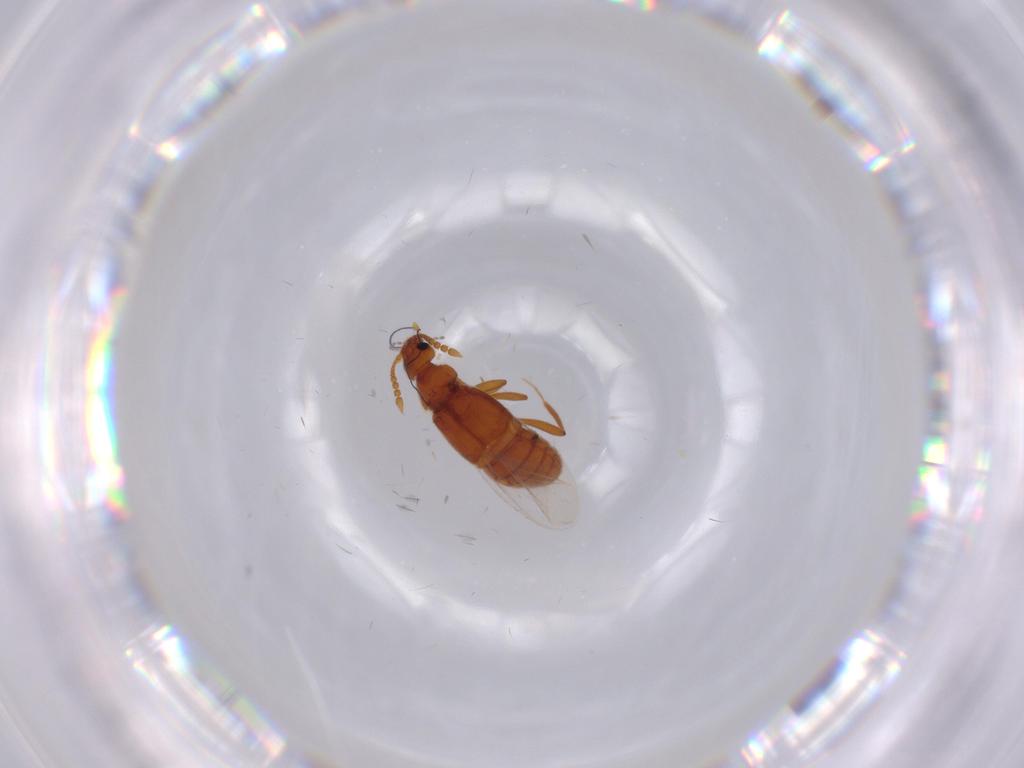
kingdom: Animalia
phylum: Arthropoda
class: Insecta
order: Coleoptera
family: Staphylinidae
